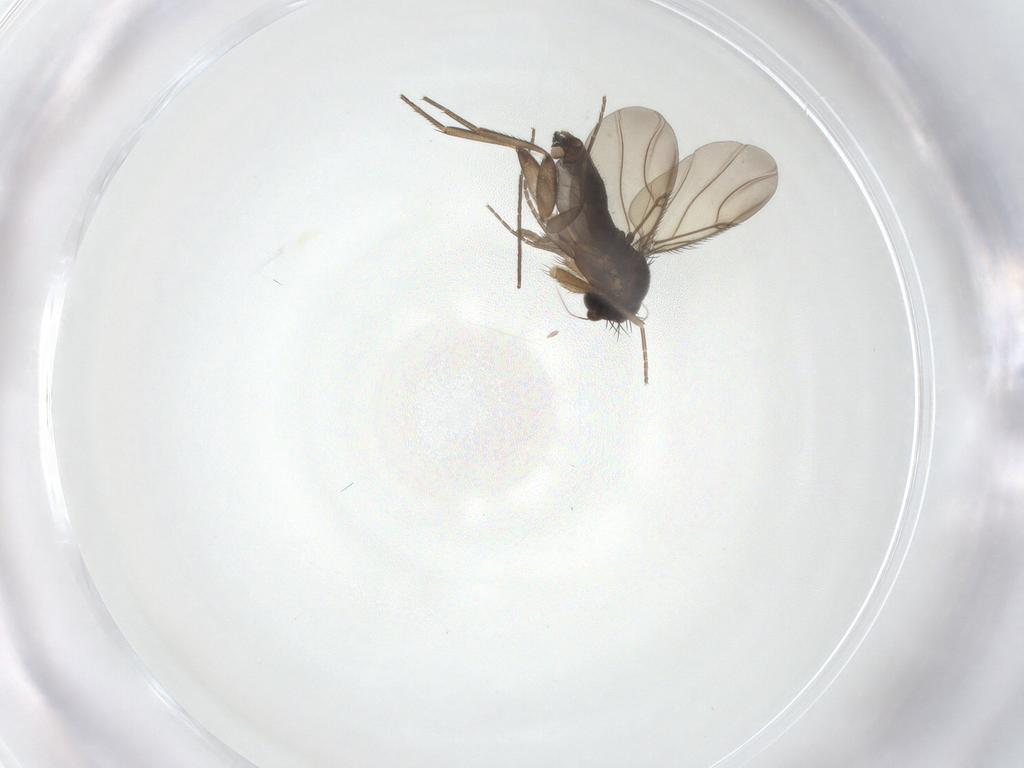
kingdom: Animalia
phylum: Arthropoda
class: Insecta
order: Diptera
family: Phoridae
